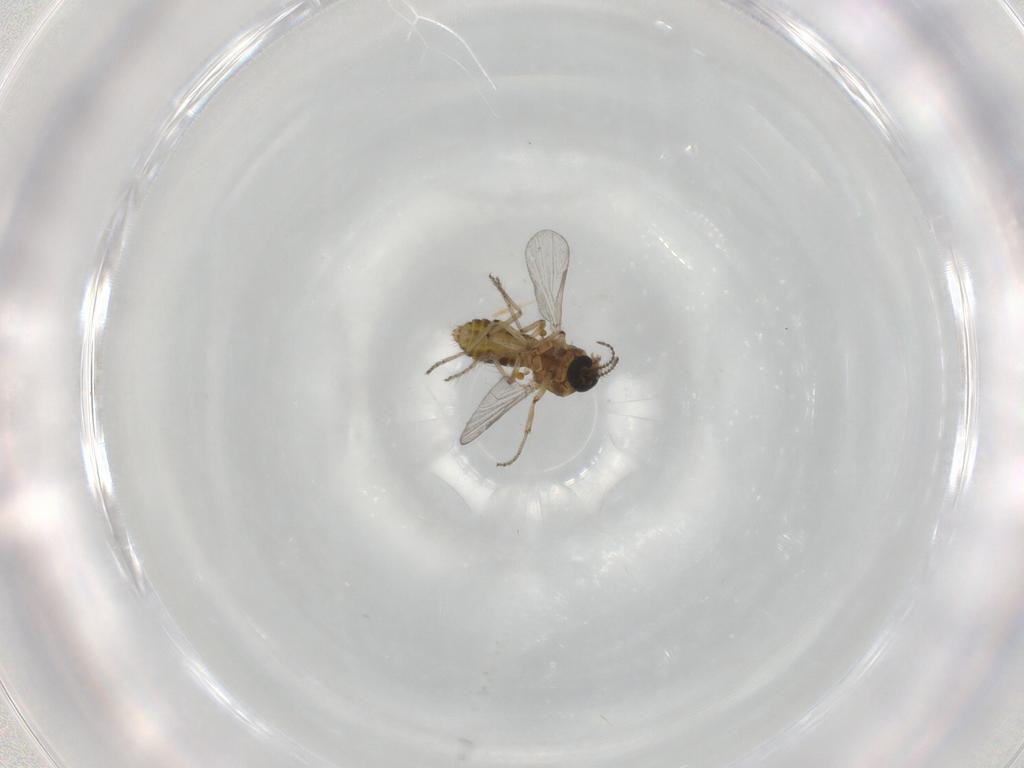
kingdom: Animalia
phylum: Arthropoda
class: Insecta
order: Diptera
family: Ceratopogonidae
